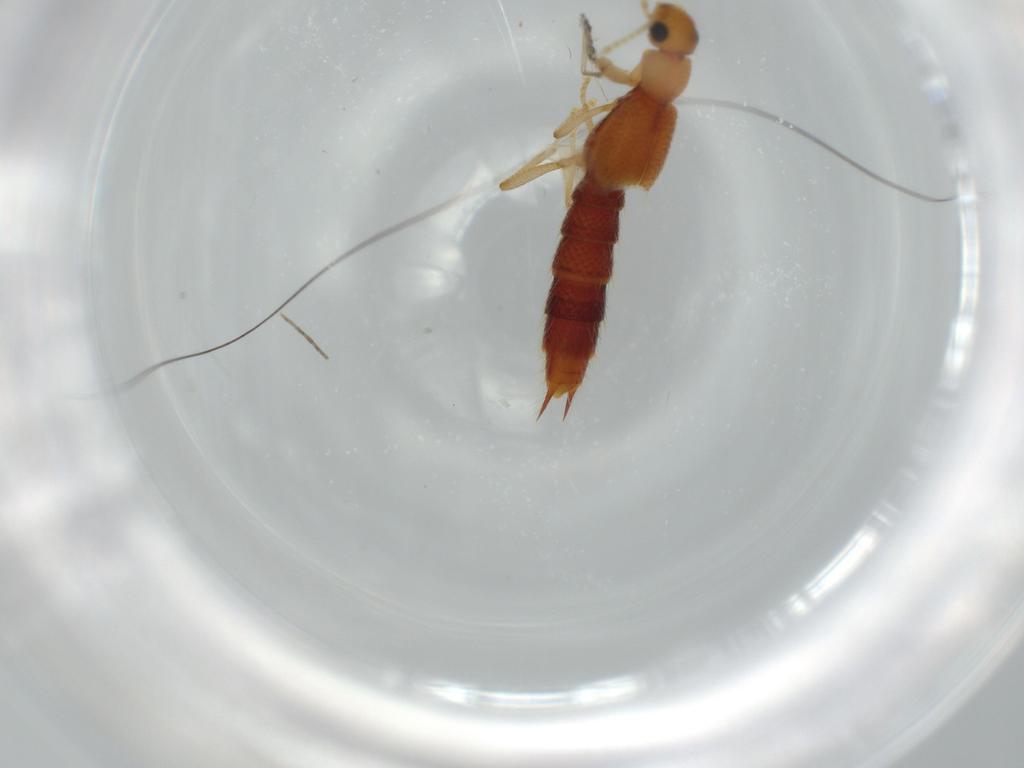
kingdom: Animalia
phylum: Arthropoda
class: Insecta
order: Coleoptera
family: Staphylinidae
